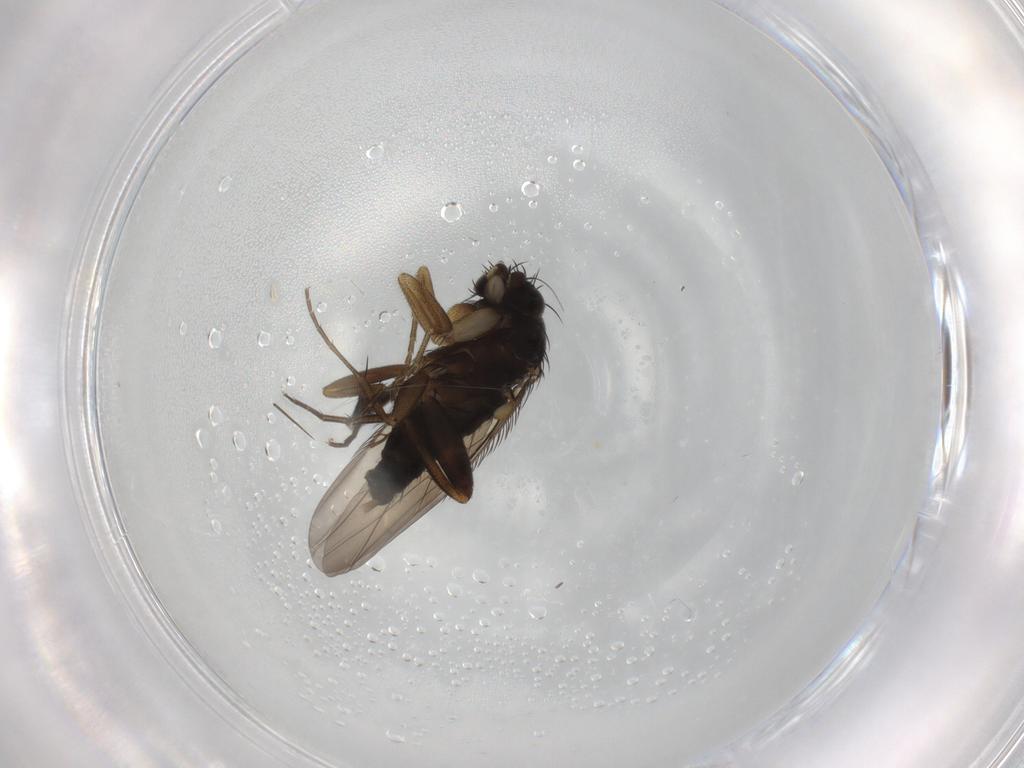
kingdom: Animalia
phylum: Arthropoda
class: Insecta
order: Diptera
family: Phoridae
